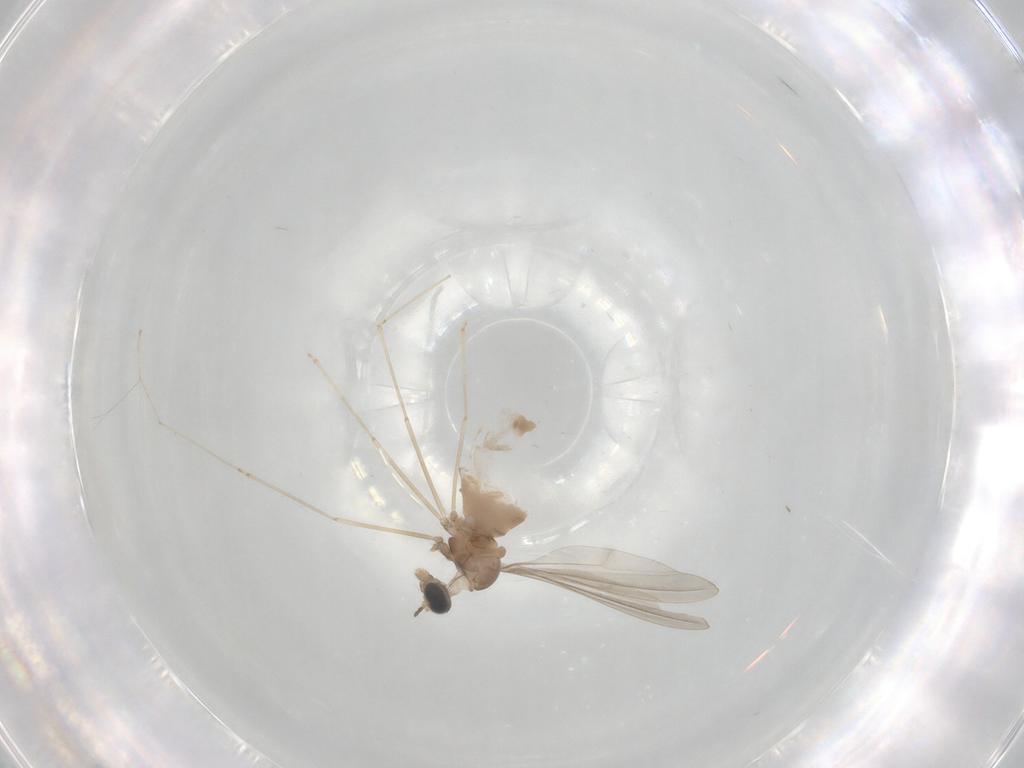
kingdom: Animalia
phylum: Arthropoda
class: Insecta
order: Diptera
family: Cecidomyiidae
